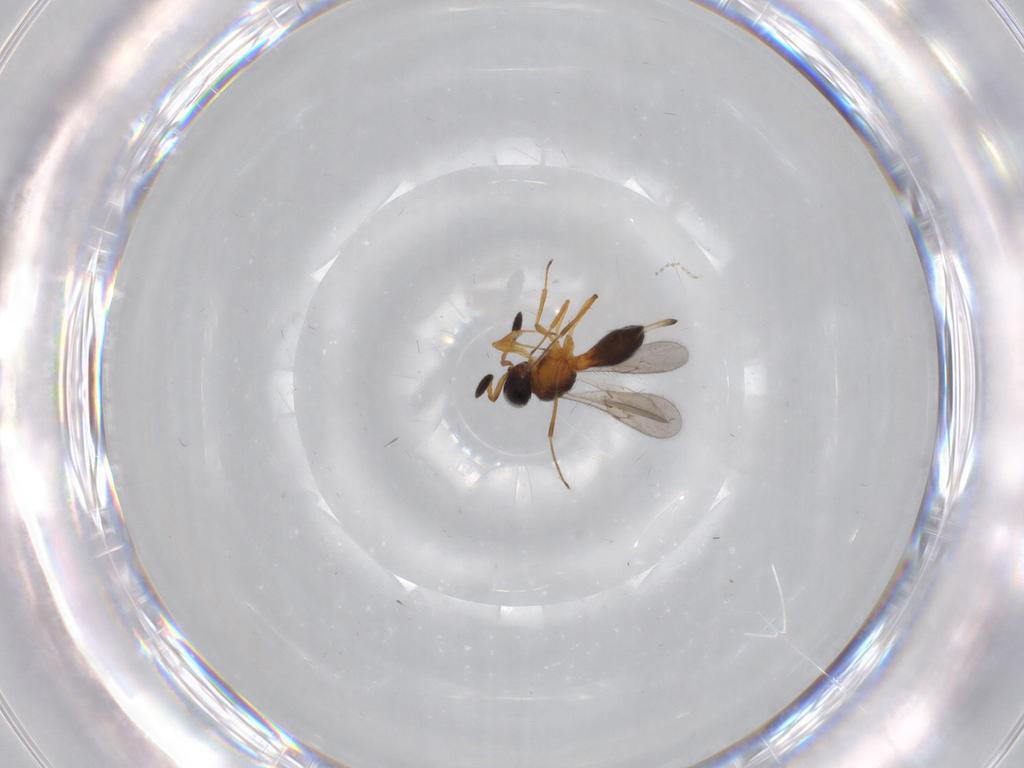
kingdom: Animalia
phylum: Arthropoda
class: Insecta
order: Hymenoptera
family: Scelionidae
